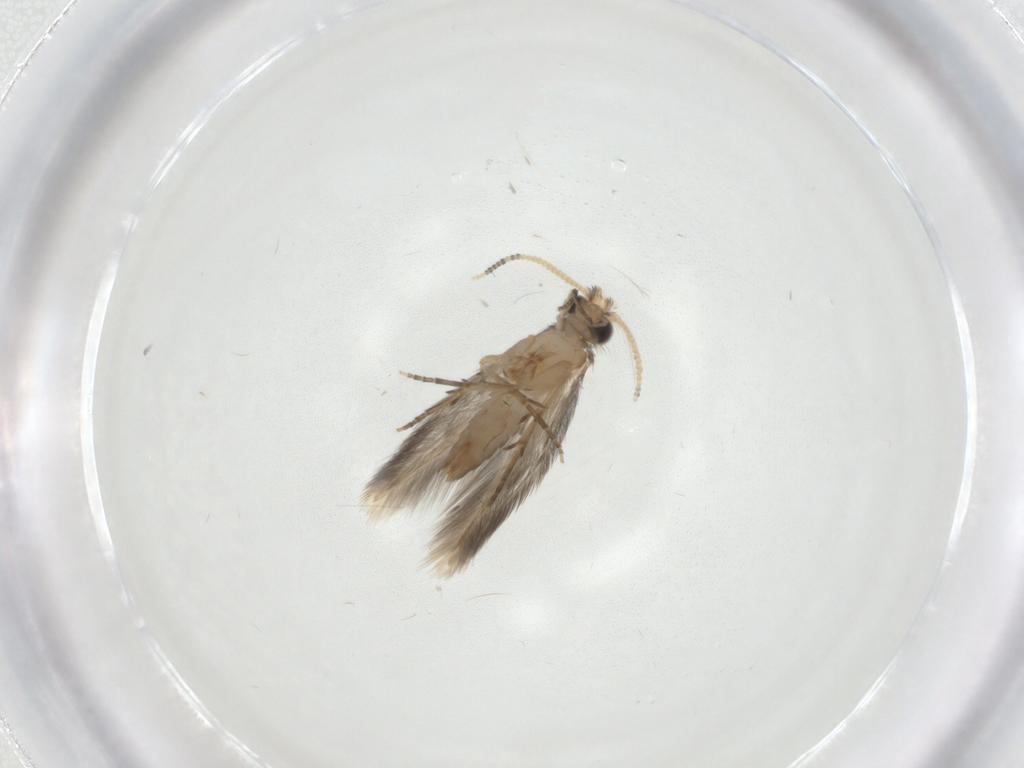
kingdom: Animalia
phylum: Arthropoda
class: Insecta
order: Trichoptera
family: Hydroptilidae
